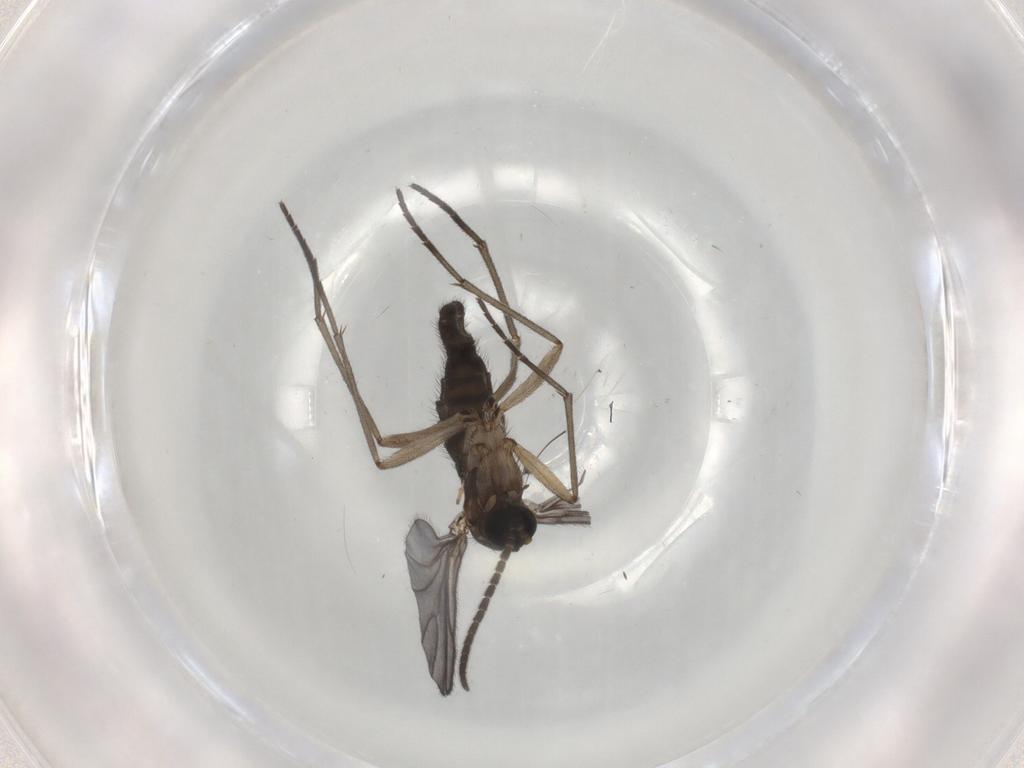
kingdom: Animalia
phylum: Arthropoda
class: Insecta
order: Diptera
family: Sciaridae
